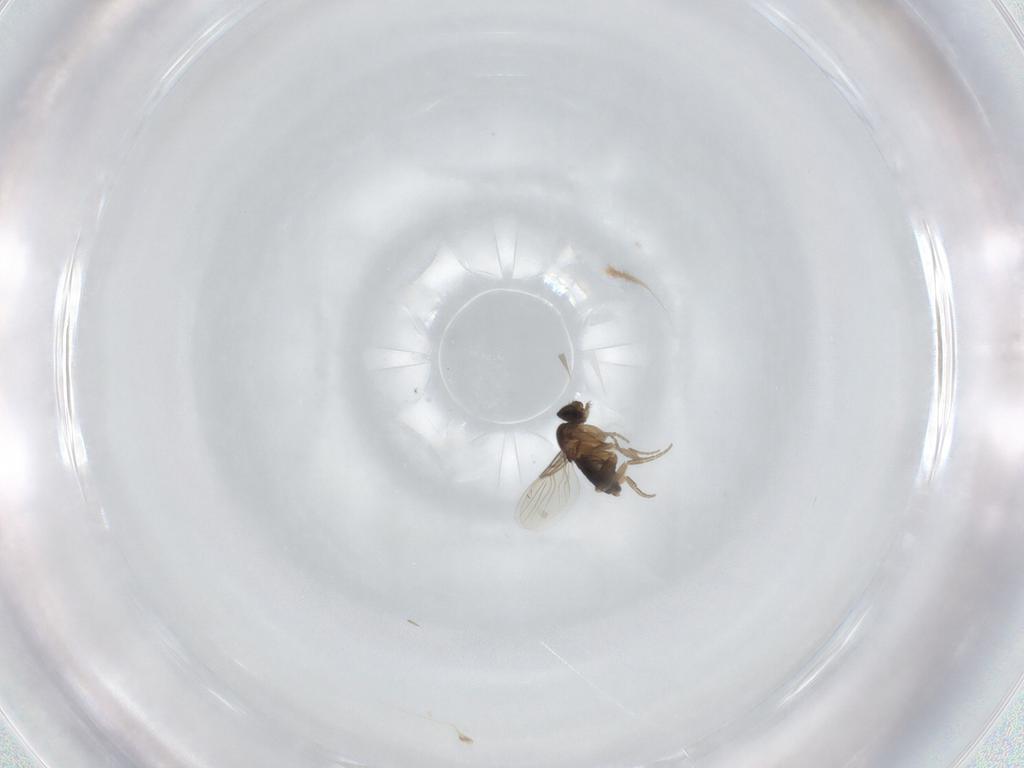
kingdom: Animalia
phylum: Arthropoda
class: Insecta
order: Diptera
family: Phoridae
